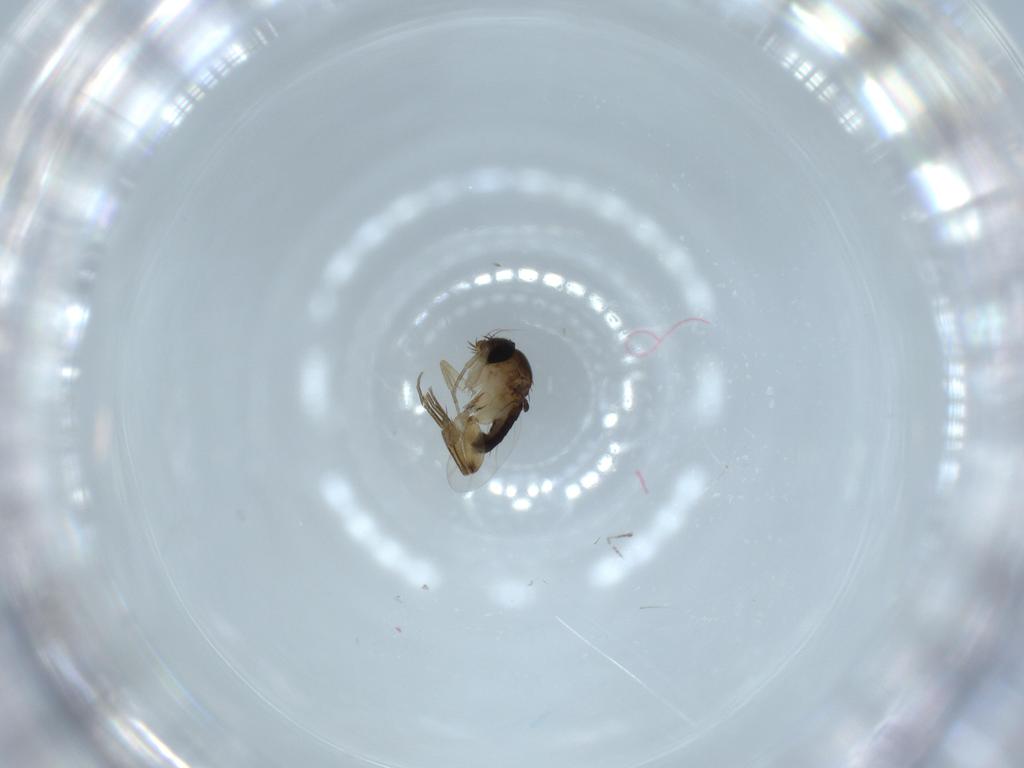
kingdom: Animalia
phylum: Arthropoda
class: Insecta
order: Diptera
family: Phoridae
